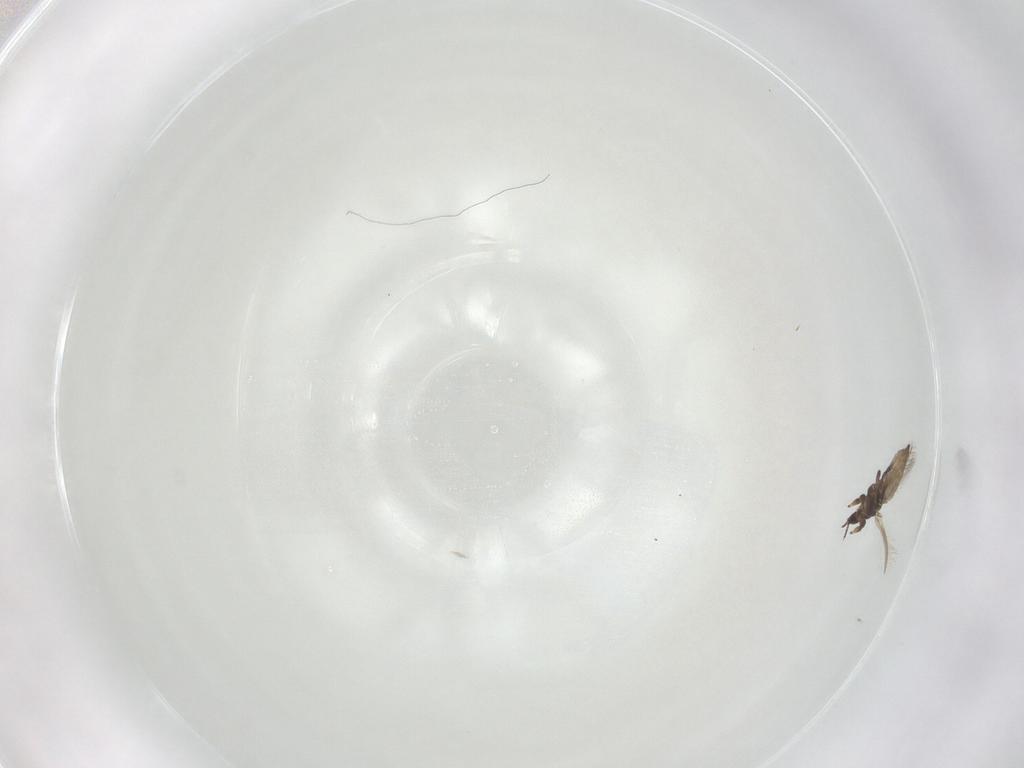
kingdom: Animalia
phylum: Arthropoda
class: Insecta
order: Thysanoptera
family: Thripidae
